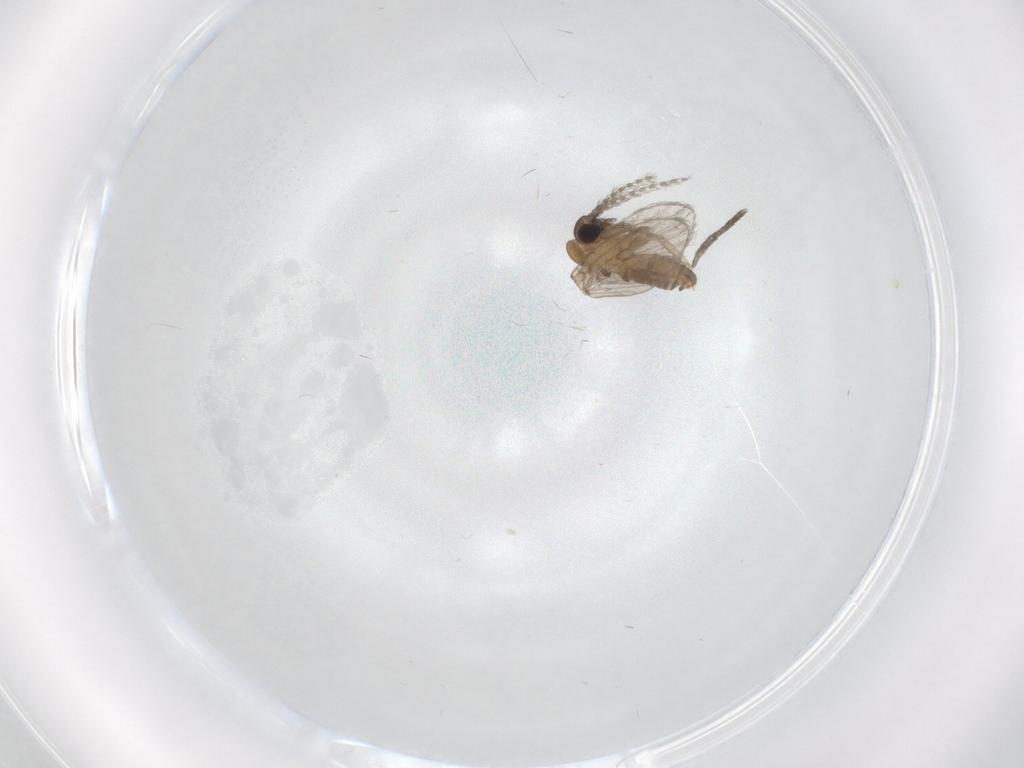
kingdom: Animalia
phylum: Arthropoda
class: Insecta
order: Diptera
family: Psychodidae
